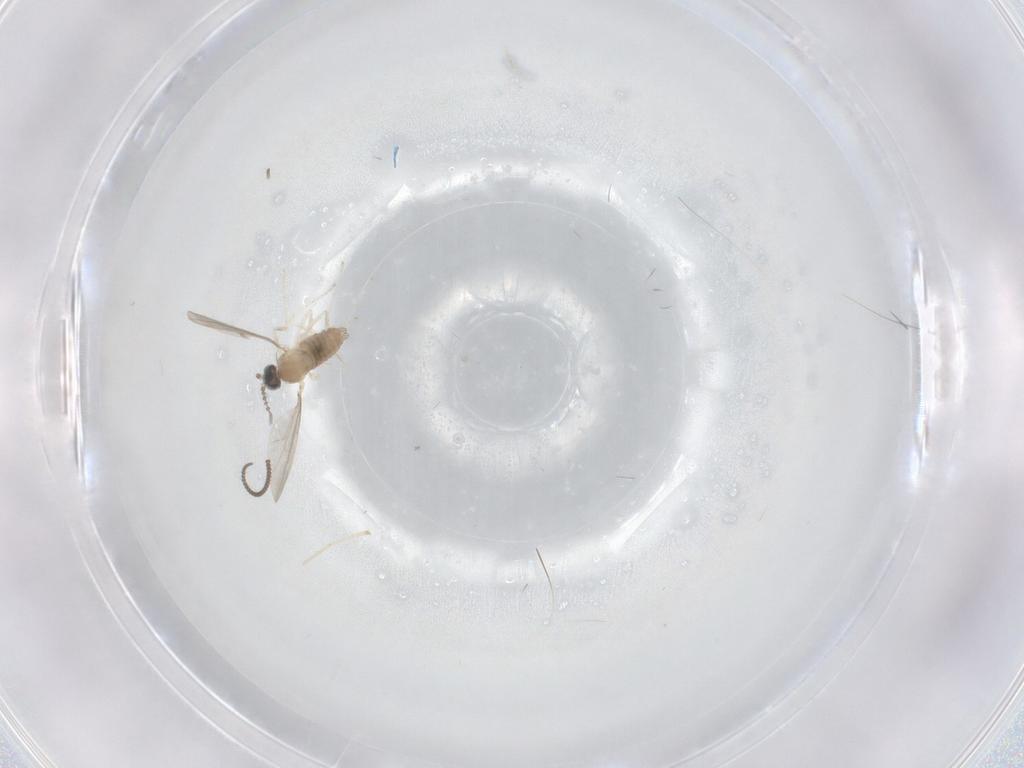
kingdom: Animalia
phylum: Arthropoda
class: Insecta
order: Diptera
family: Cecidomyiidae
